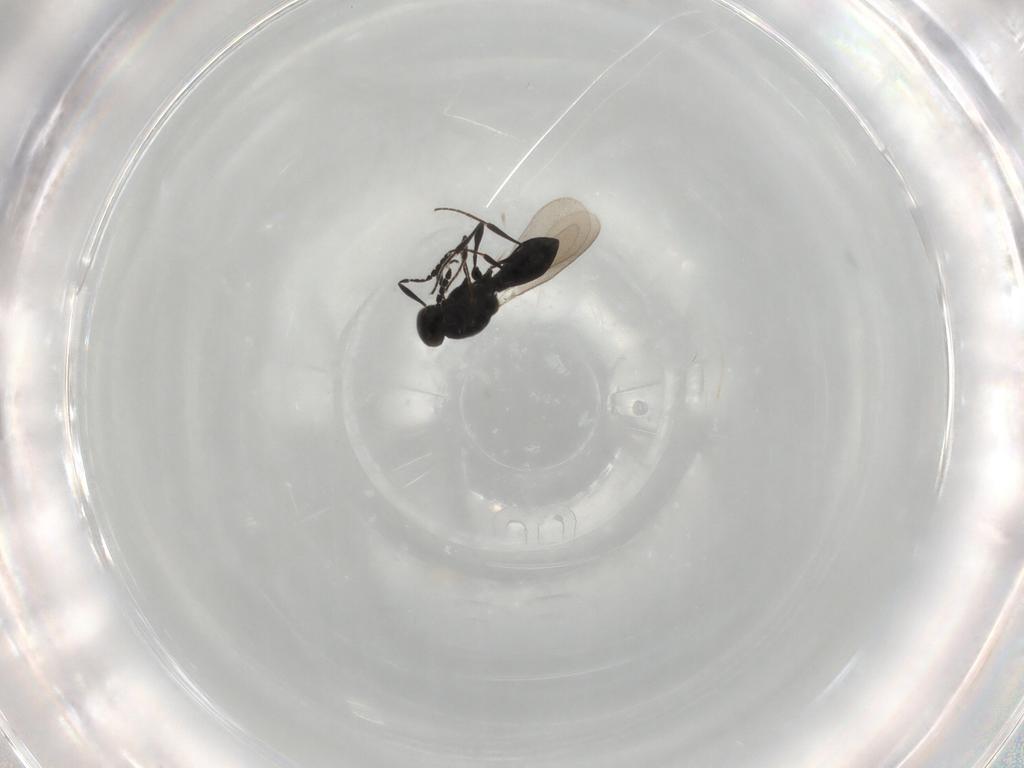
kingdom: Animalia
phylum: Arthropoda
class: Insecta
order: Hymenoptera
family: Platygastridae
